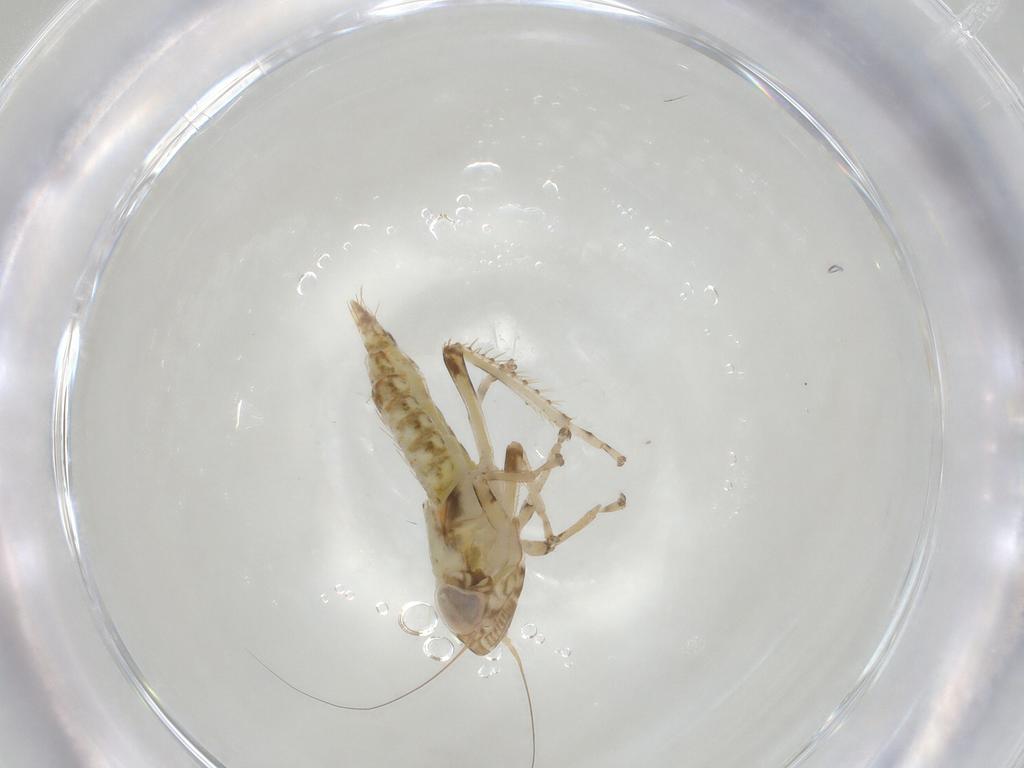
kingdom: Animalia
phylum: Arthropoda
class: Insecta
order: Hemiptera
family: Cicadellidae
